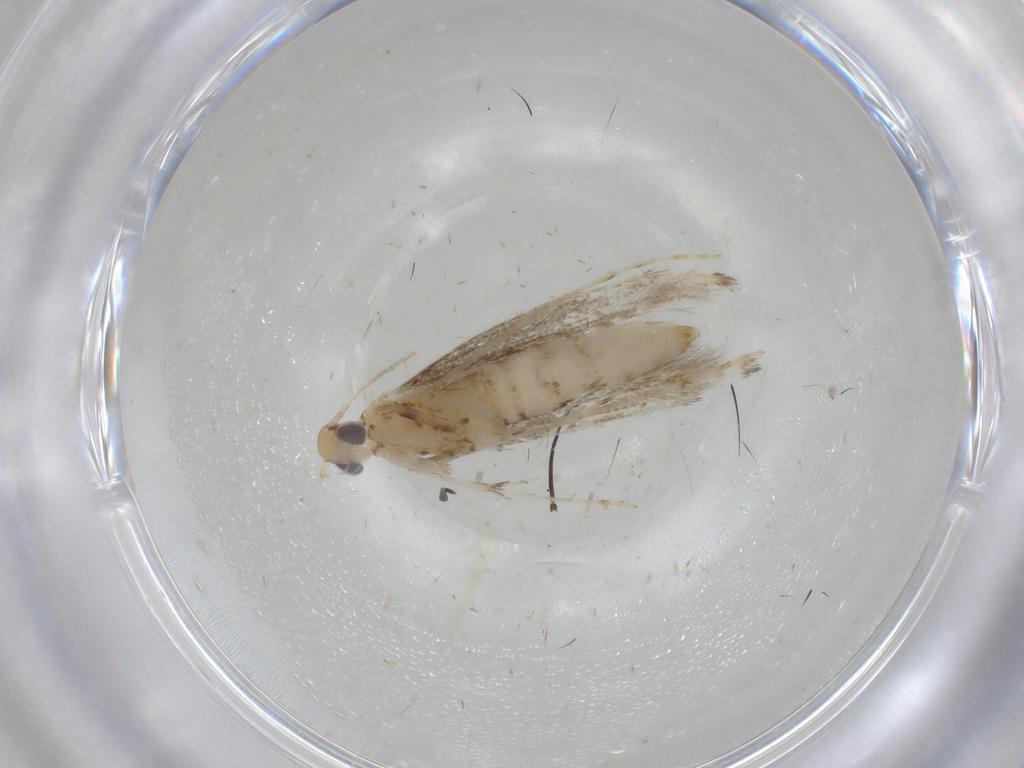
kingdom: Animalia
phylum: Arthropoda
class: Insecta
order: Lepidoptera
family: Gracillariidae
